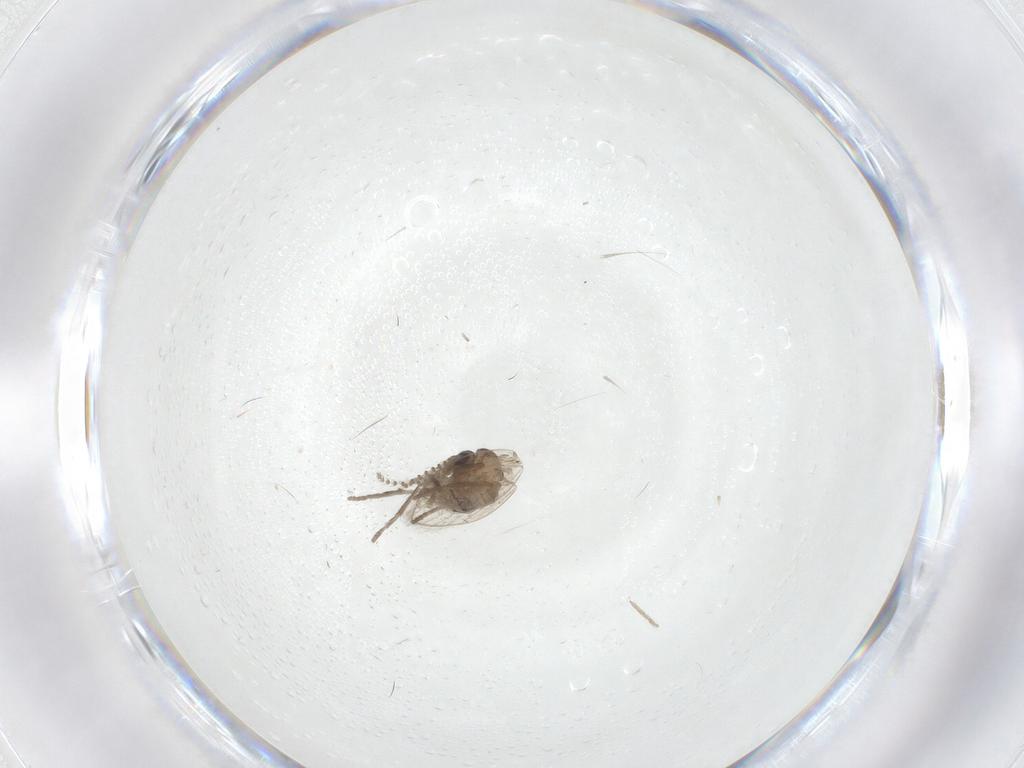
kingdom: Animalia
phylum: Arthropoda
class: Insecta
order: Diptera
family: Psychodidae
